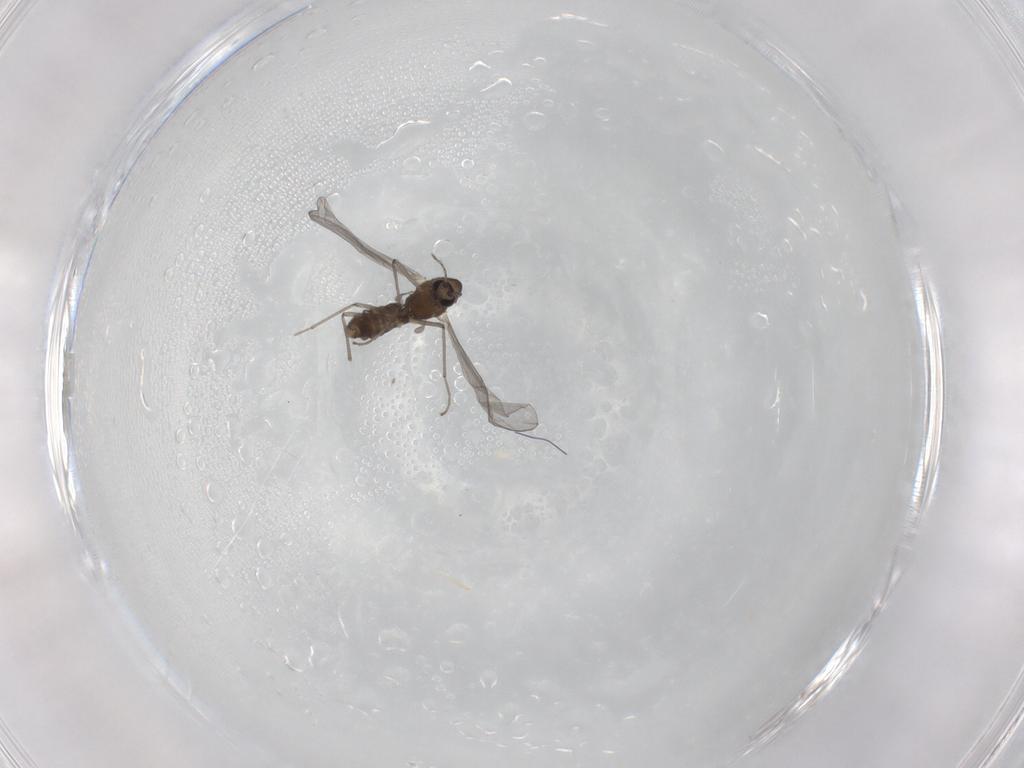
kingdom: Animalia
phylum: Arthropoda
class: Insecta
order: Diptera
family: Chironomidae
